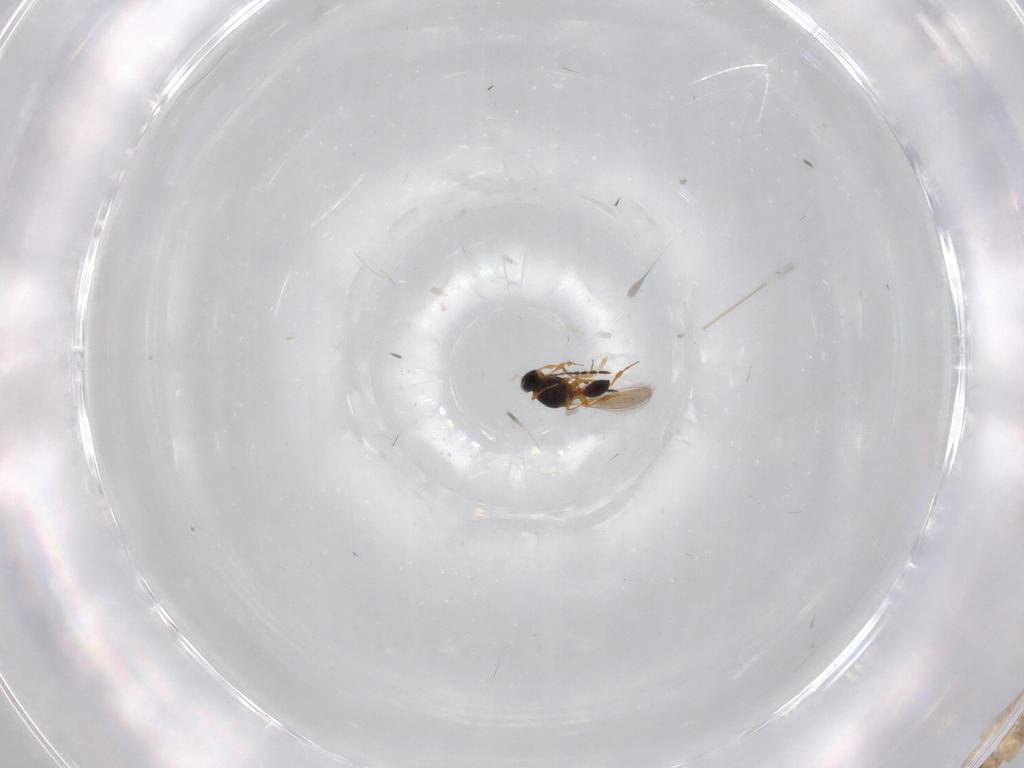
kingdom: Animalia
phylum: Arthropoda
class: Insecta
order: Hymenoptera
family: Platygastridae
